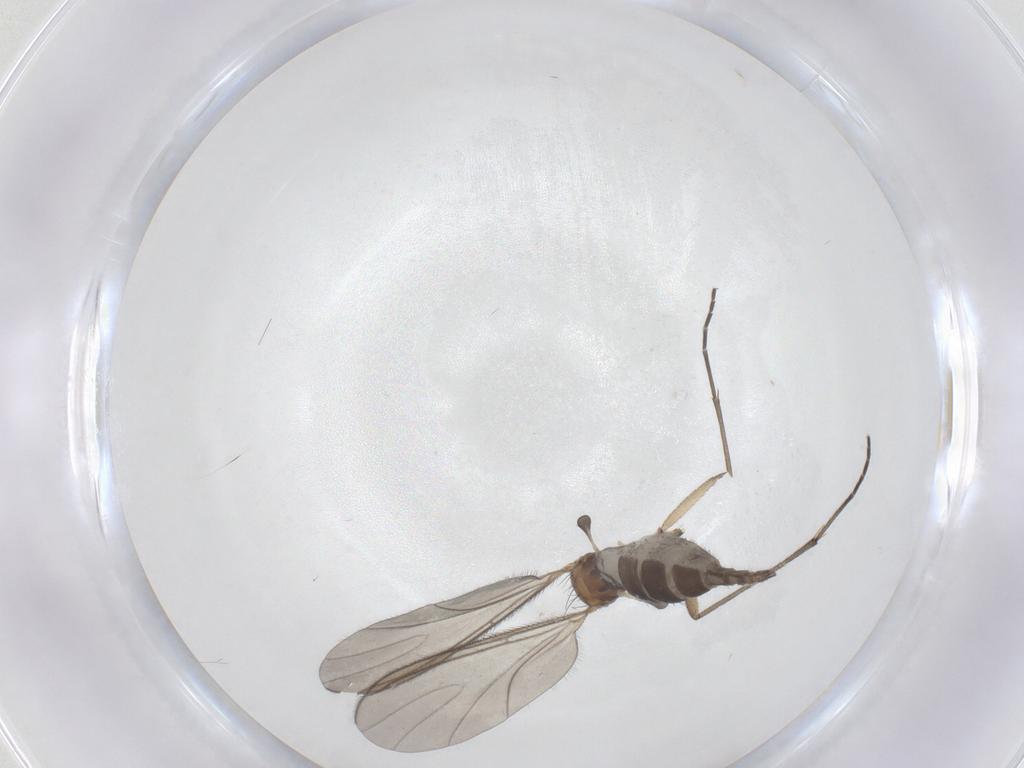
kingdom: Animalia
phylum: Arthropoda
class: Insecta
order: Diptera
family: Sciaridae
